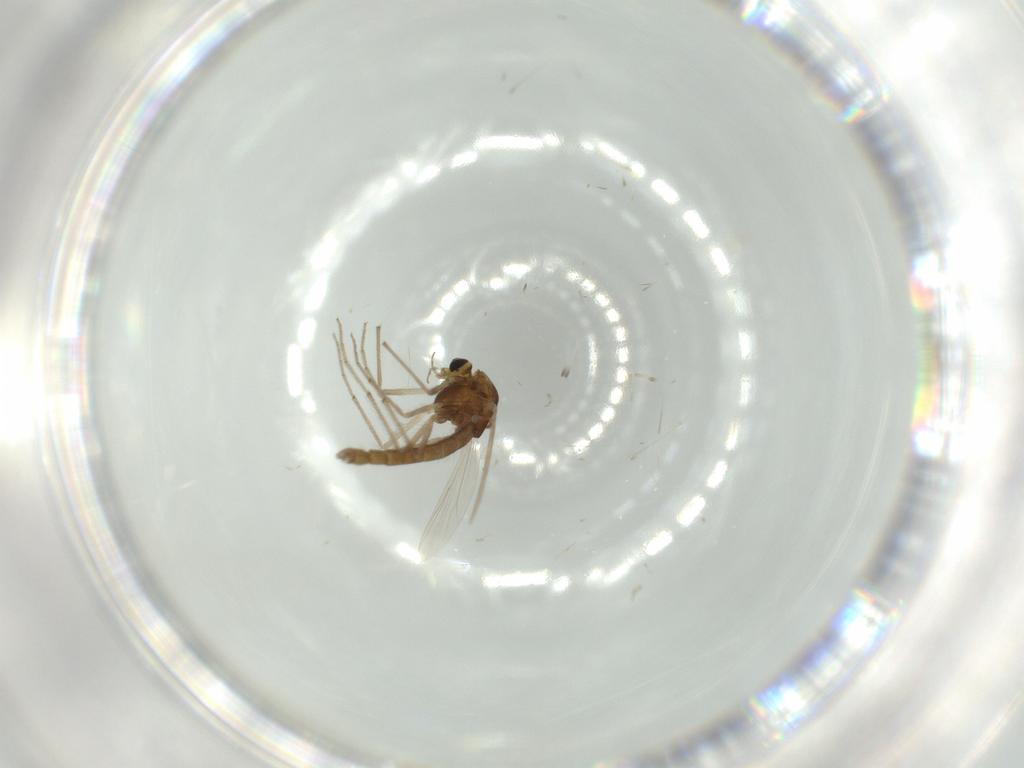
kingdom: Animalia
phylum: Arthropoda
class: Insecta
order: Diptera
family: Chironomidae
